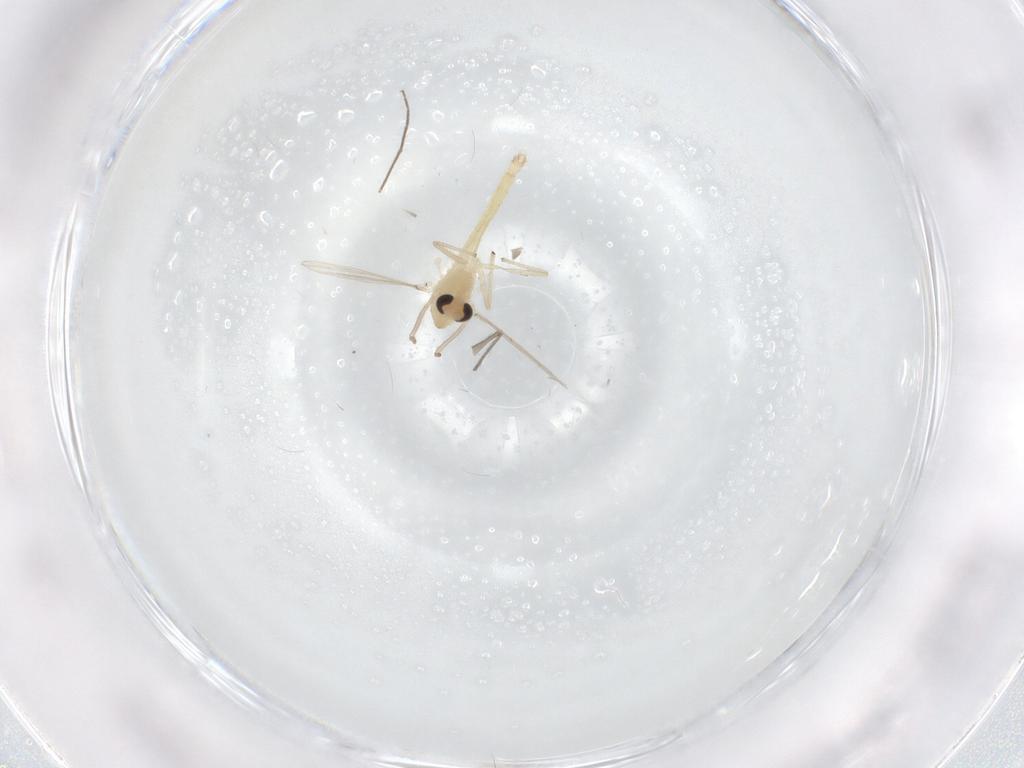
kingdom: Animalia
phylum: Arthropoda
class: Insecta
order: Diptera
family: Chironomidae
